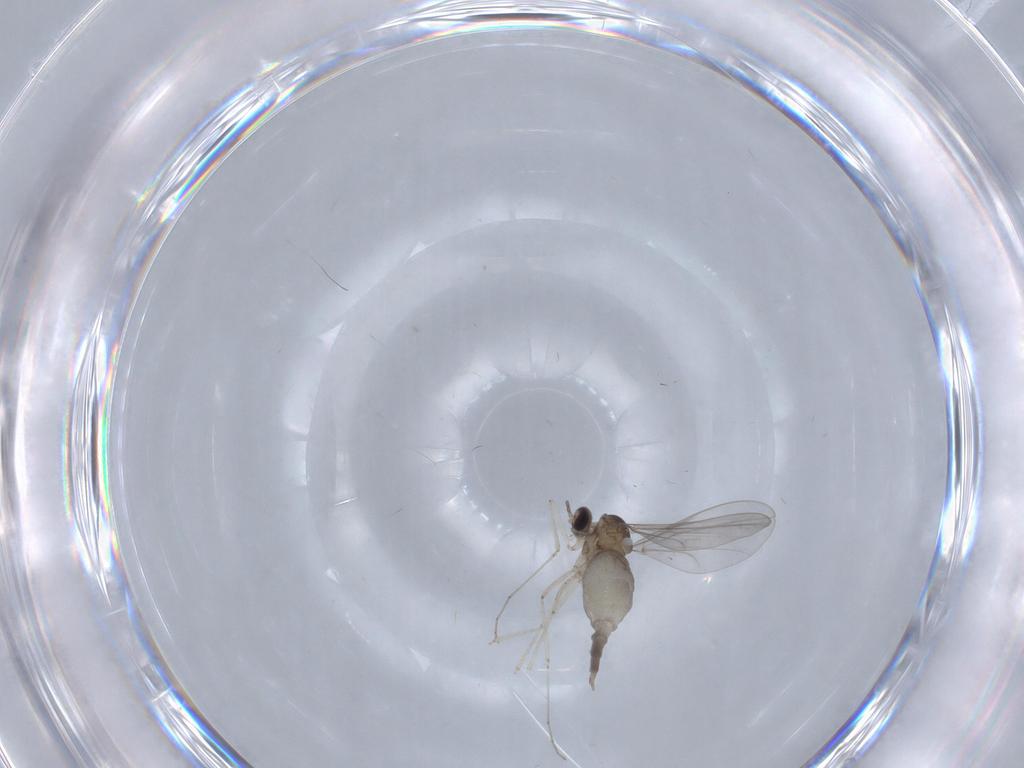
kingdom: Animalia
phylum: Arthropoda
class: Insecta
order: Diptera
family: Cecidomyiidae
